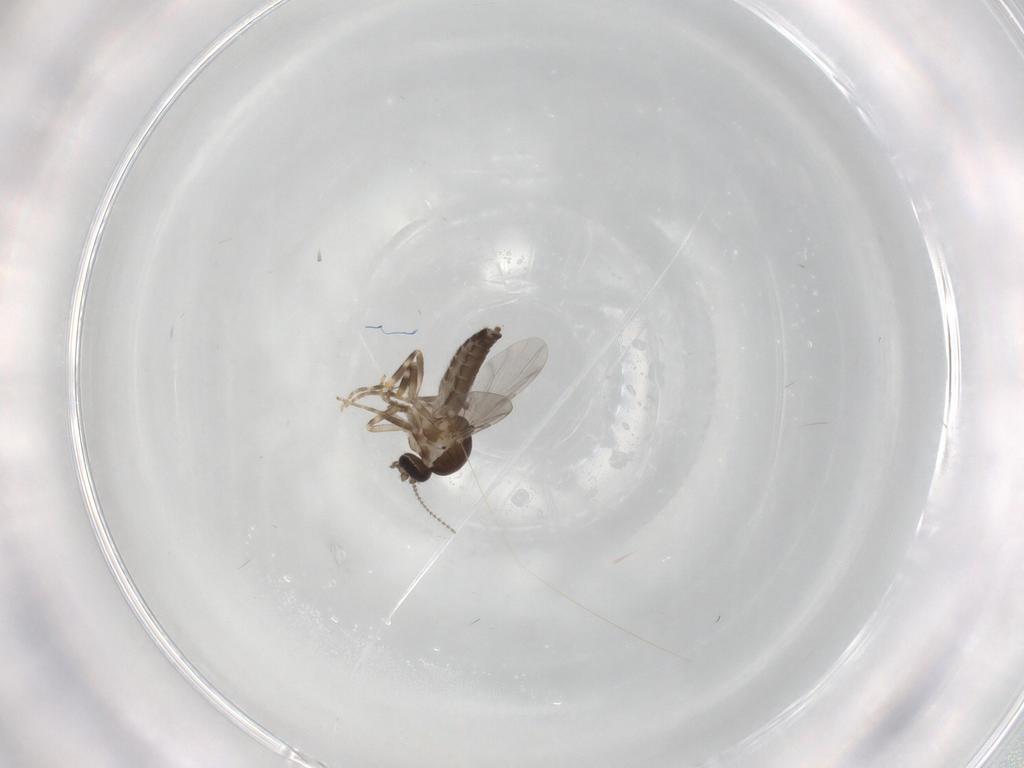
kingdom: Animalia
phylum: Arthropoda
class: Insecta
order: Diptera
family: Ceratopogonidae
